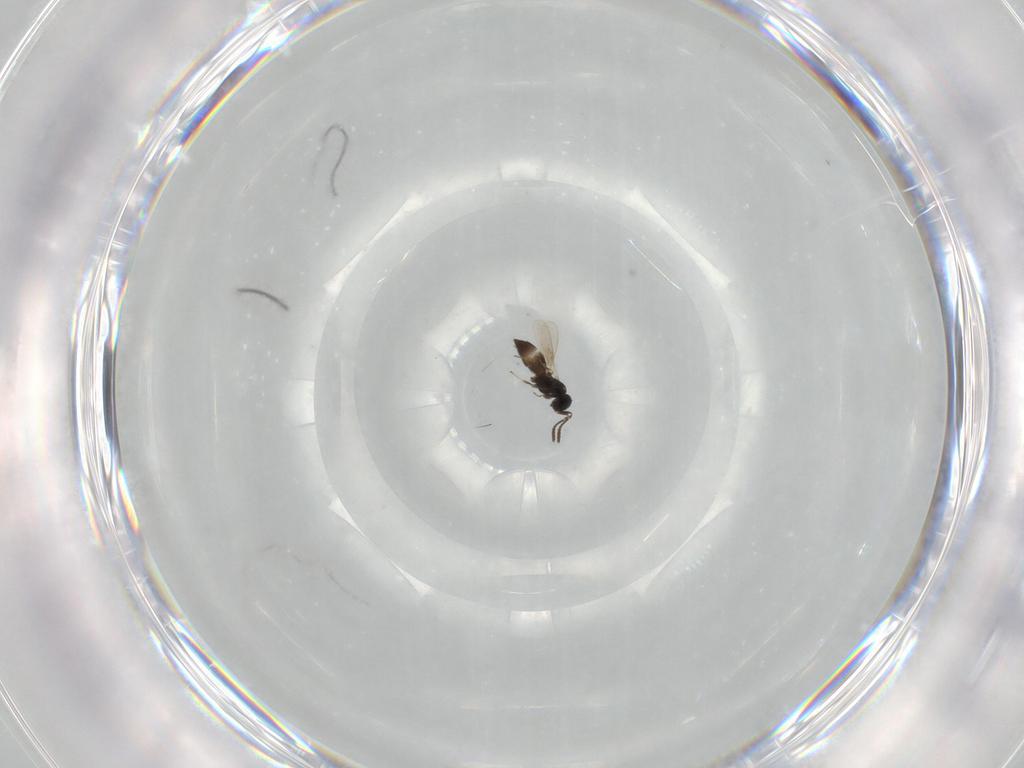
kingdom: Animalia
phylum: Arthropoda
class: Insecta
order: Hymenoptera
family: Scelionidae
